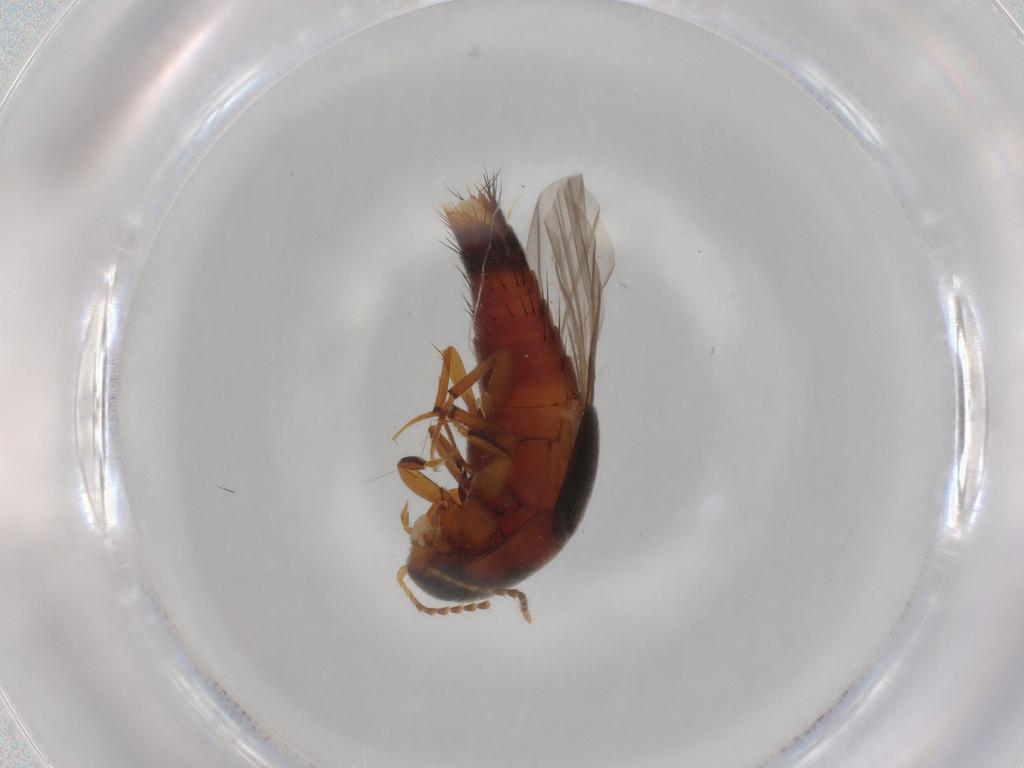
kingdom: Animalia
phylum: Arthropoda
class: Insecta
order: Coleoptera
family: Staphylinidae
